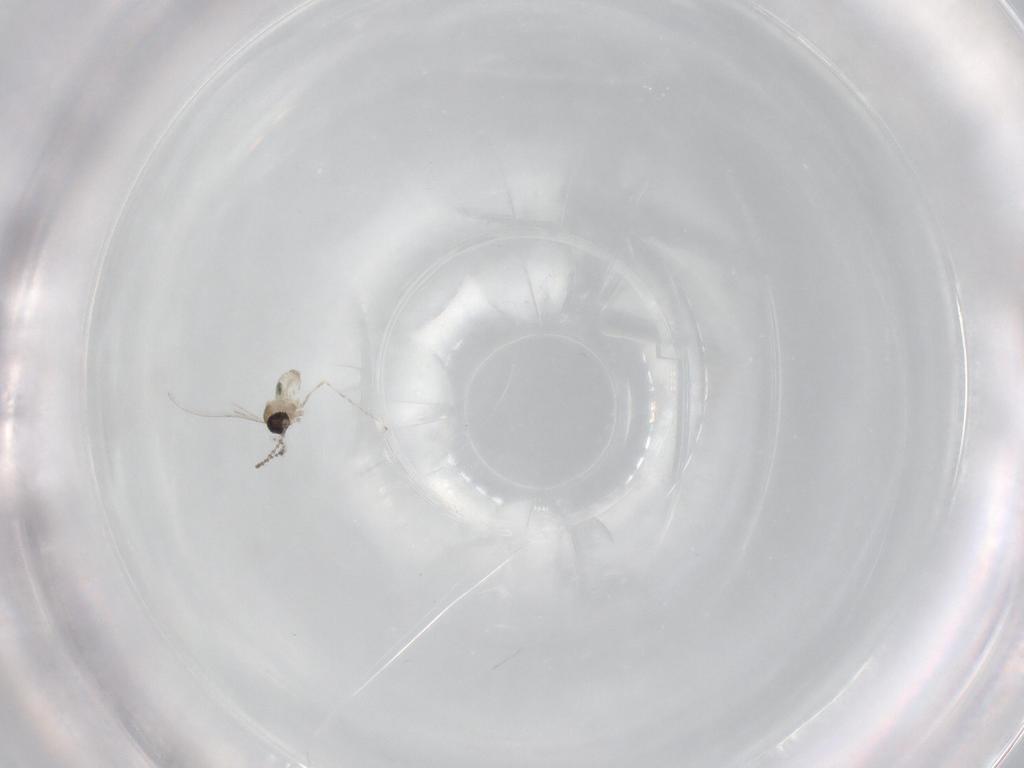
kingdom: Animalia
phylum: Arthropoda
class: Insecta
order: Diptera
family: Cecidomyiidae
